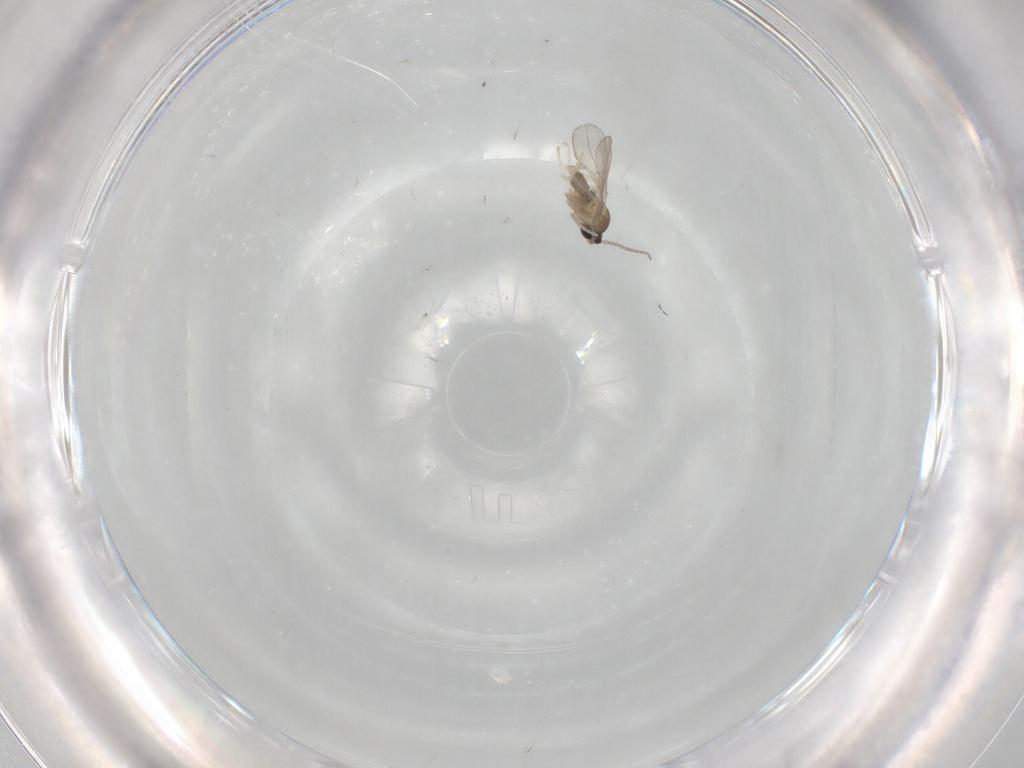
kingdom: Animalia
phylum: Arthropoda
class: Insecta
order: Diptera
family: Cecidomyiidae
